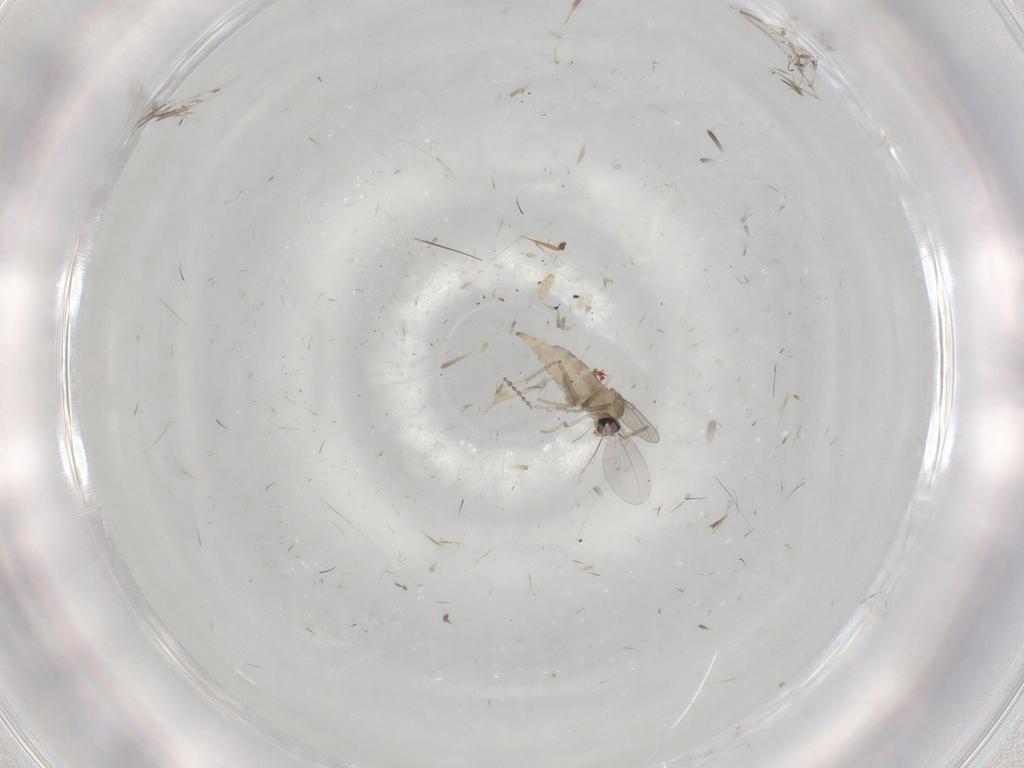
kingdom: Animalia
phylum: Arthropoda
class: Insecta
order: Diptera
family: Cecidomyiidae
